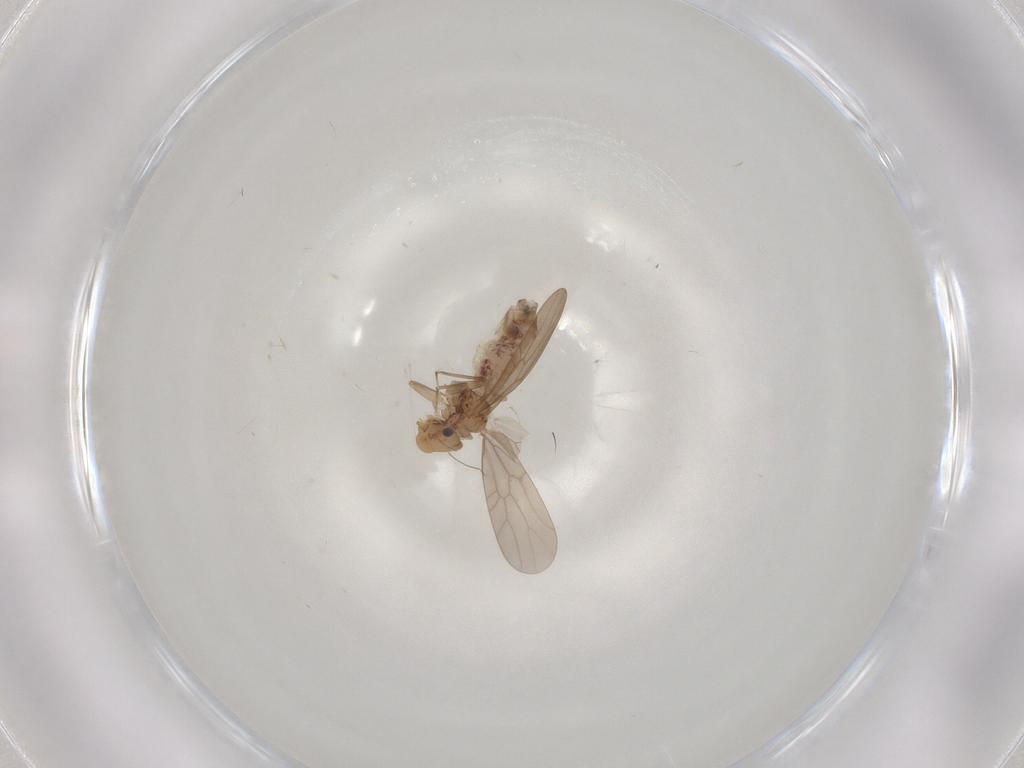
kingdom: Animalia
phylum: Arthropoda
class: Insecta
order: Psocodea
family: Lepidopsocidae
